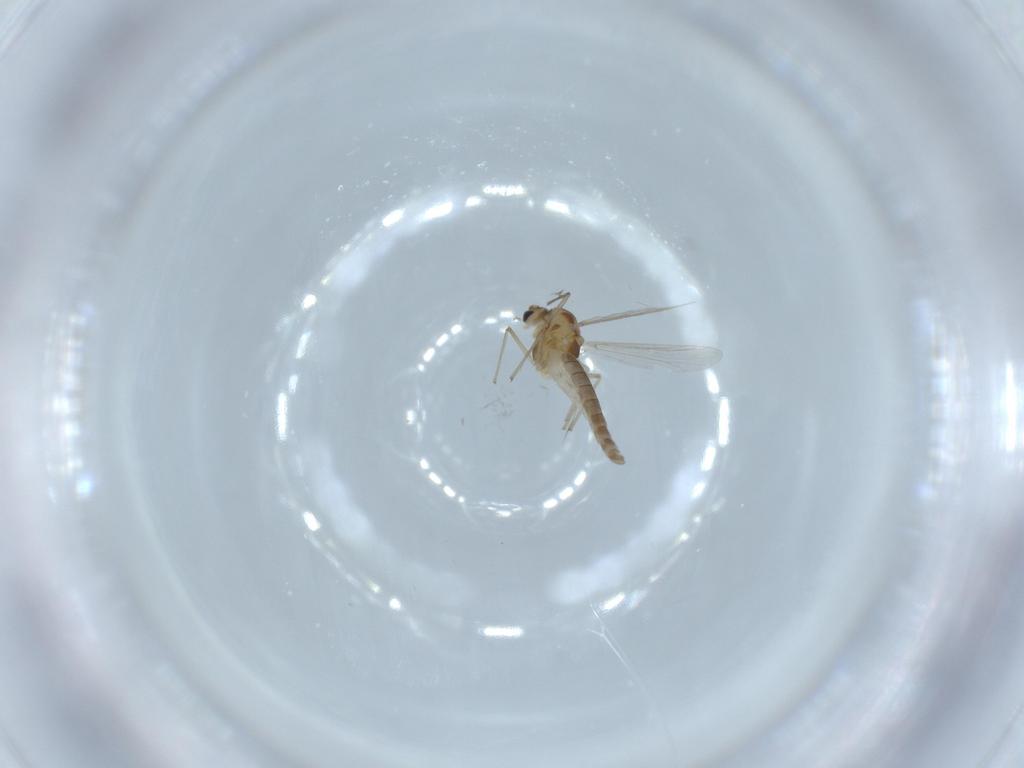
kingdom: Animalia
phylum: Arthropoda
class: Insecta
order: Diptera
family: Chironomidae
